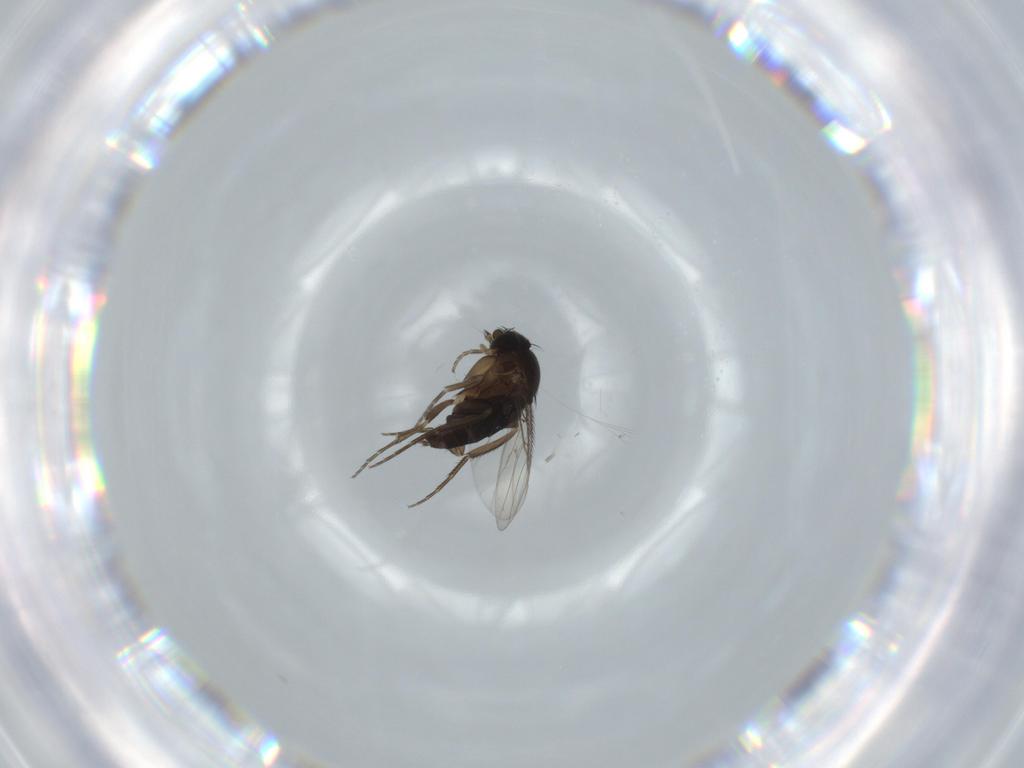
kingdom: Animalia
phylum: Arthropoda
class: Insecta
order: Diptera
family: Phoridae
